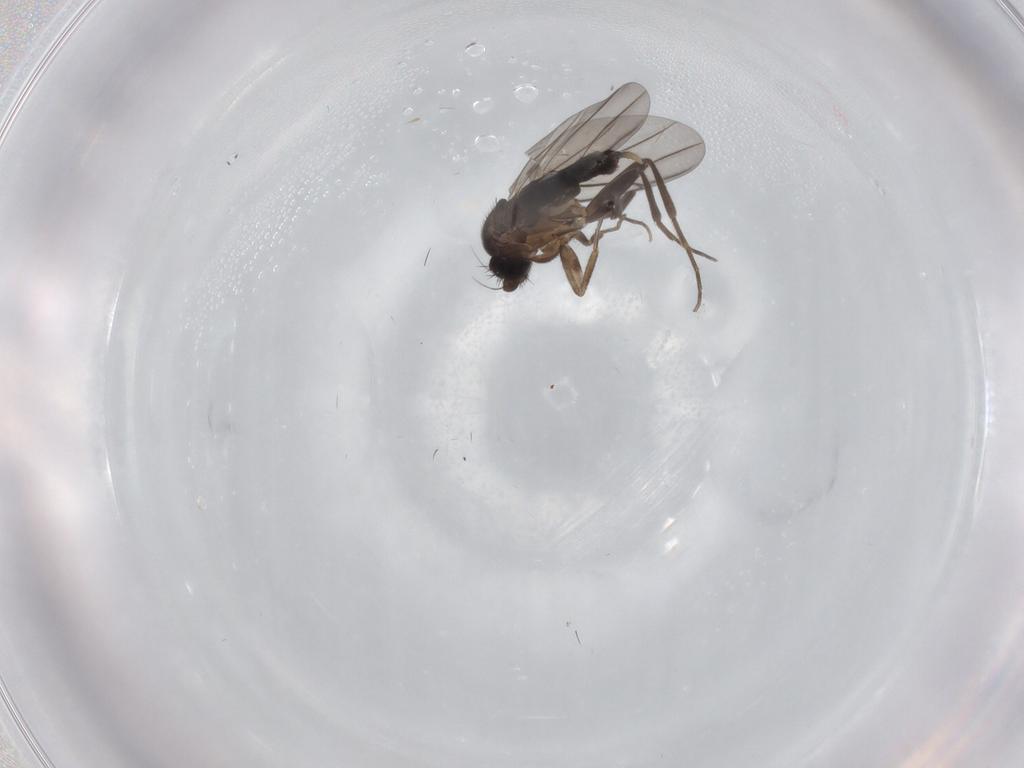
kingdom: Animalia
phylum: Arthropoda
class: Insecta
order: Diptera
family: Phoridae
